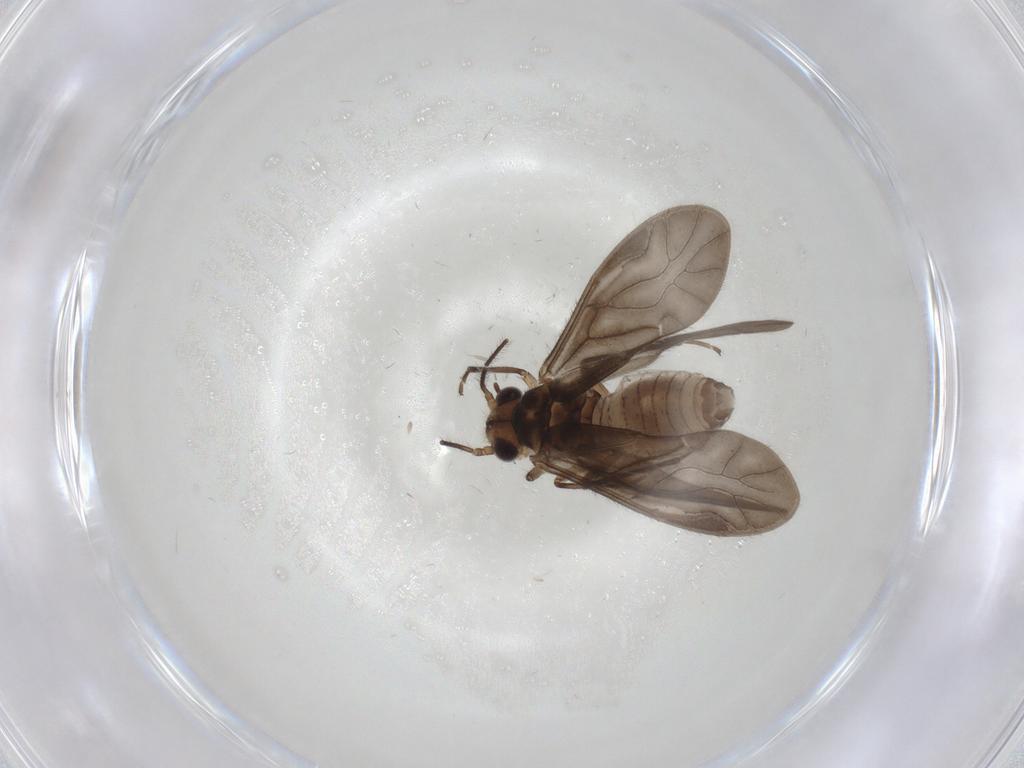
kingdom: Animalia
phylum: Arthropoda
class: Insecta
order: Psocodea
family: Caeciliusidae
